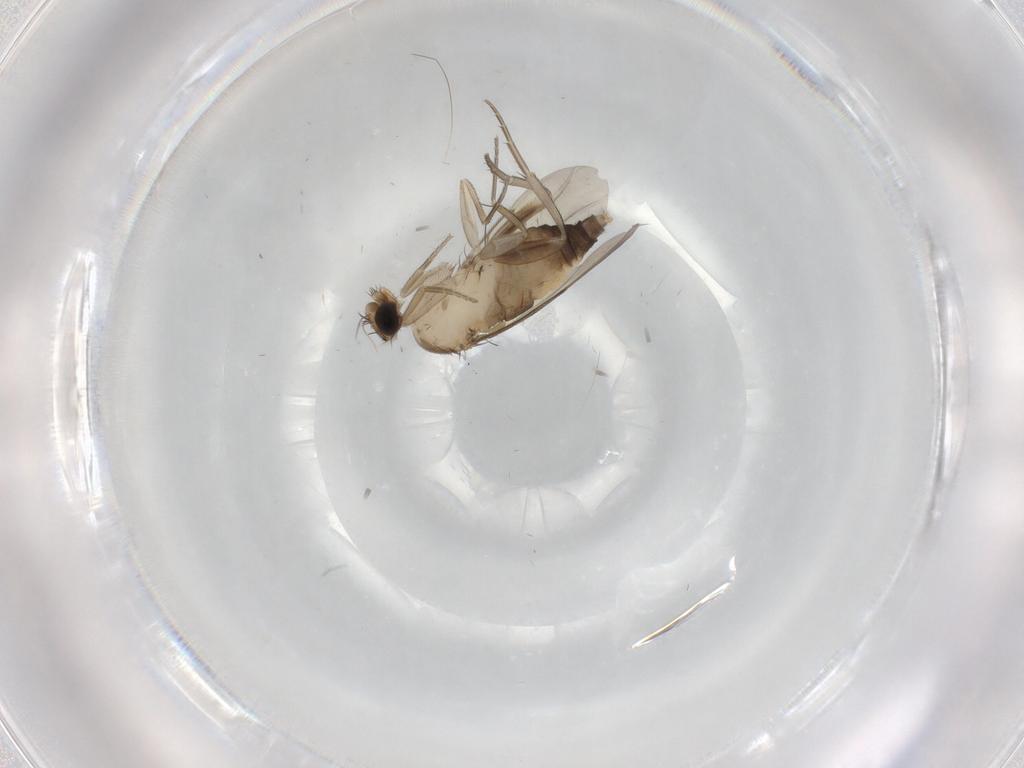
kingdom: Animalia
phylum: Arthropoda
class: Insecta
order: Diptera
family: Phoridae
